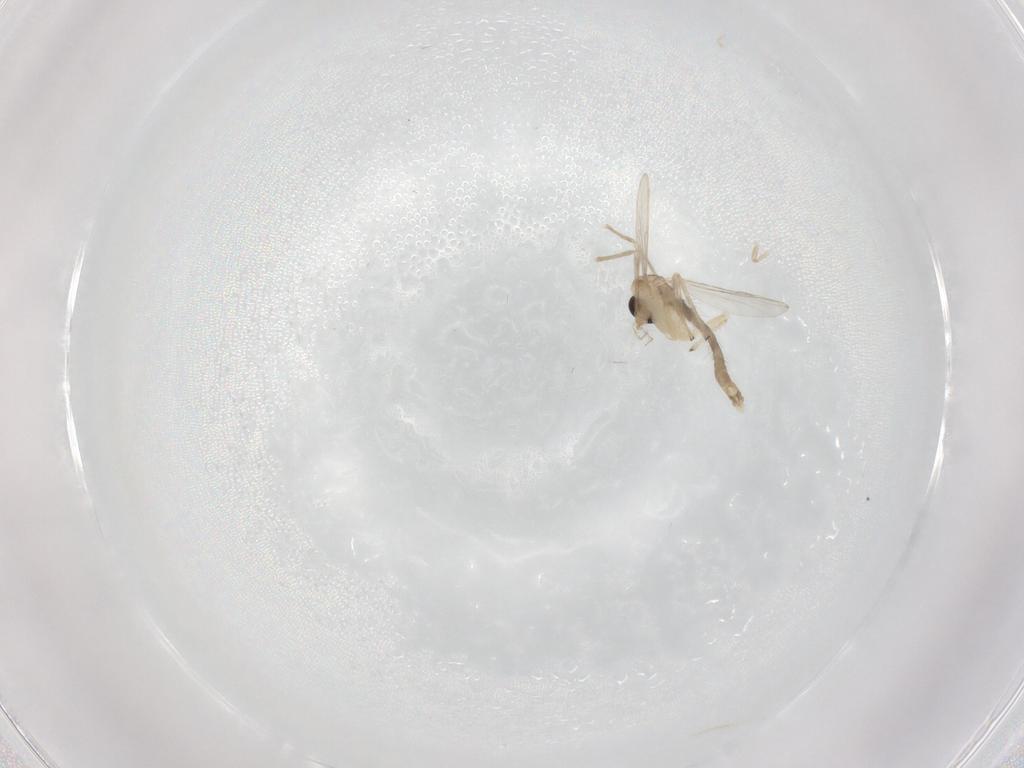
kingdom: Animalia
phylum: Arthropoda
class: Insecta
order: Diptera
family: Chironomidae
